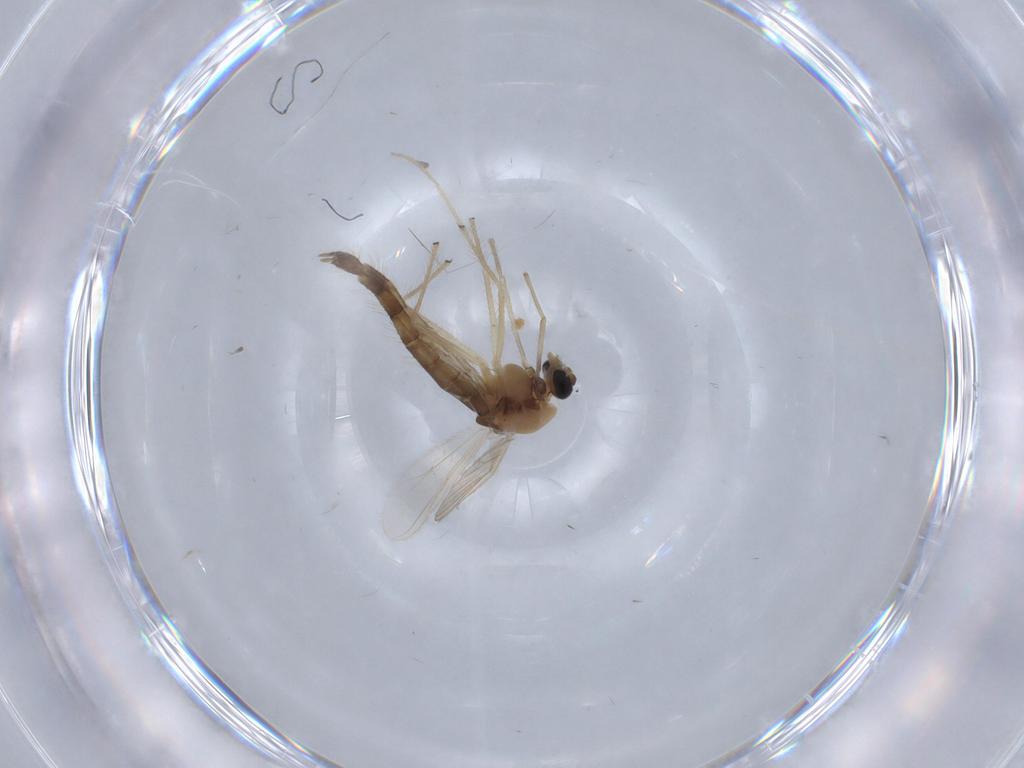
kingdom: Animalia
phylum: Arthropoda
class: Insecta
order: Diptera
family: Chironomidae
